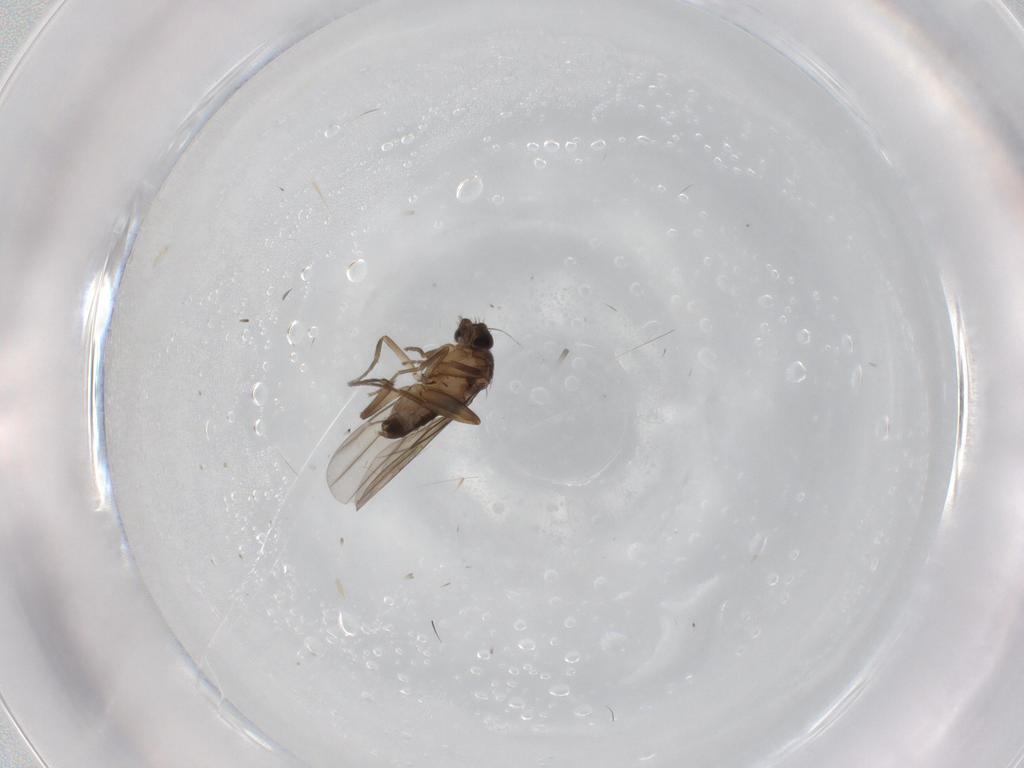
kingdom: Animalia
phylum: Arthropoda
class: Insecta
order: Diptera
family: Phoridae
